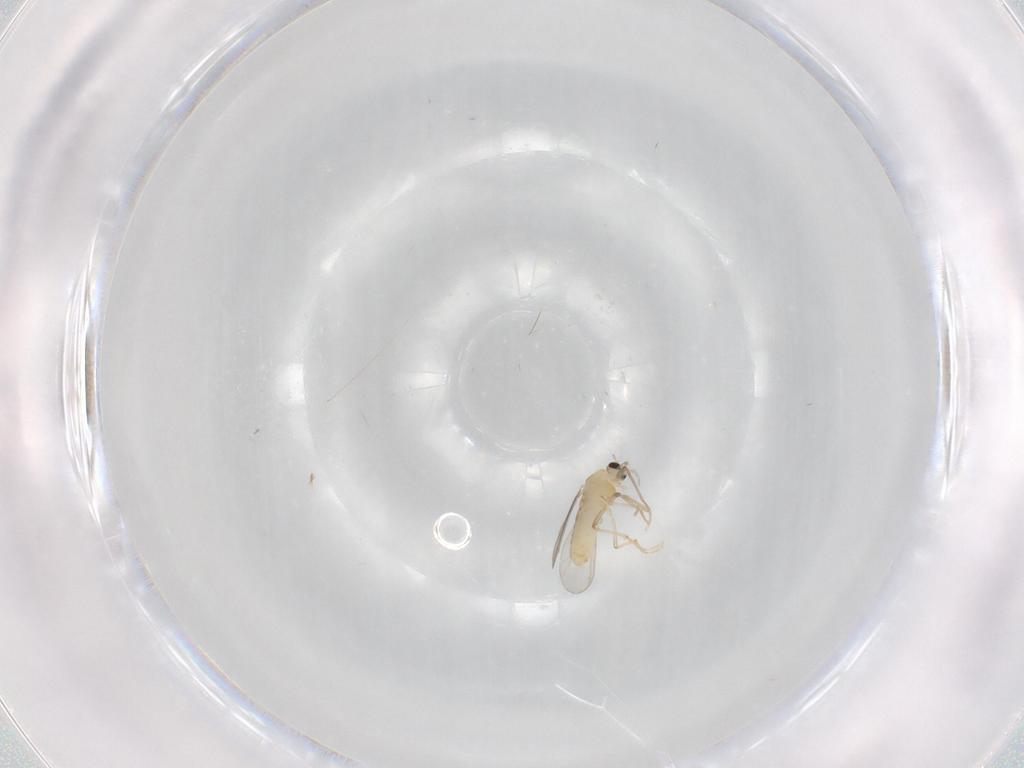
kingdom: Animalia
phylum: Arthropoda
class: Insecta
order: Diptera
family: Hybotidae
